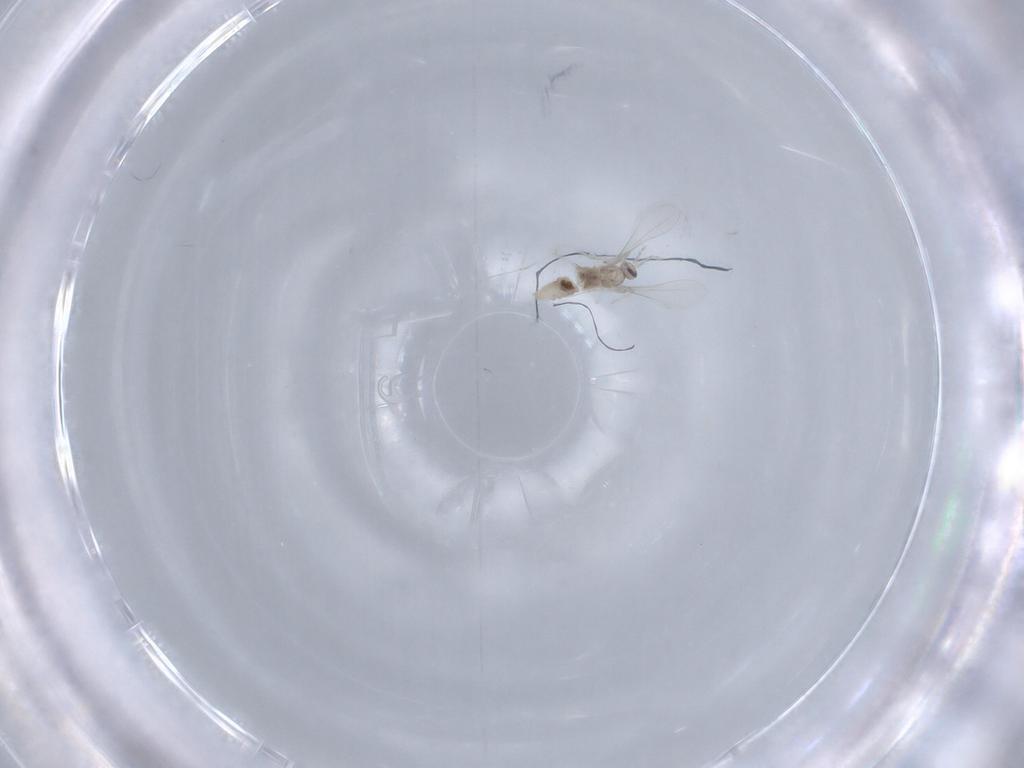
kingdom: Animalia
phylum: Arthropoda
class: Insecta
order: Diptera
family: Cecidomyiidae
